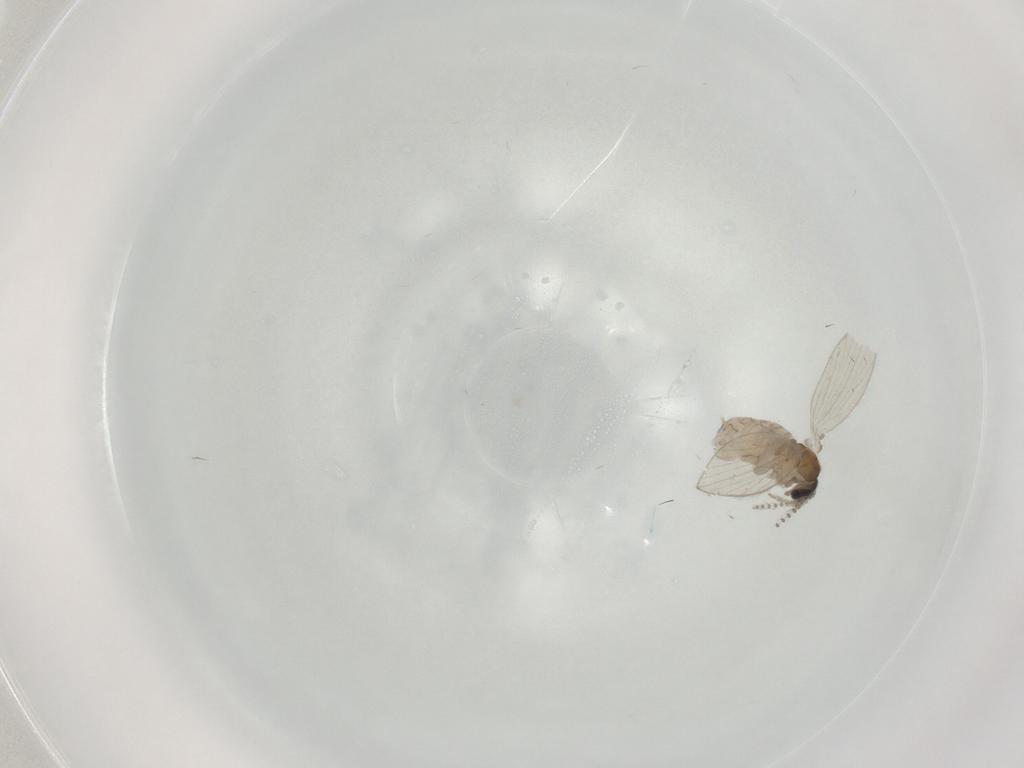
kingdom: Animalia
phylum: Arthropoda
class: Insecta
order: Diptera
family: Psychodidae
